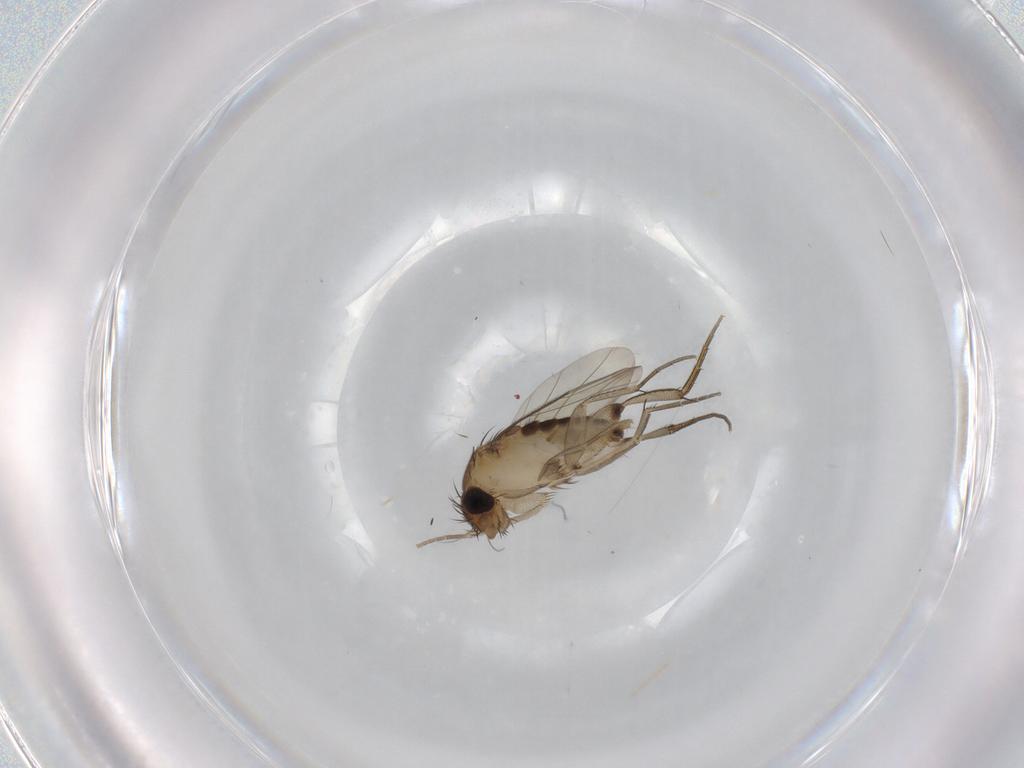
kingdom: Animalia
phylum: Arthropoda
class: Insecta
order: Diptera
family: Phoridae
